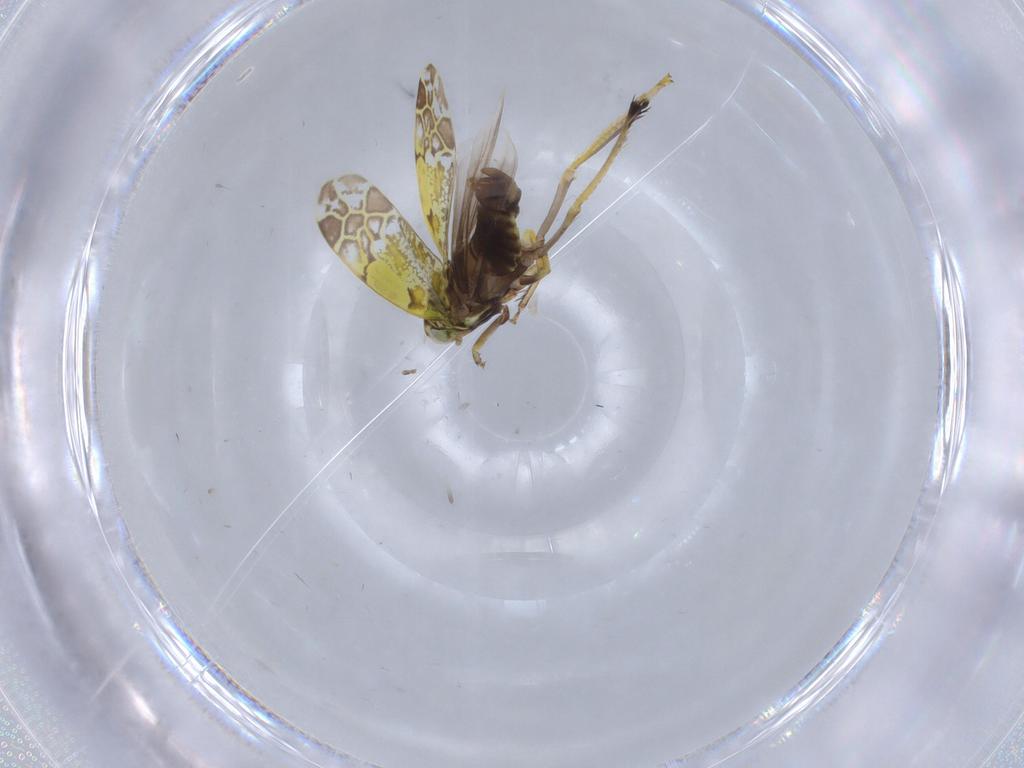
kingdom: Animalia
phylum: Arthropoda
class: Insecta
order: Hemiptera
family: Cicadellidae
